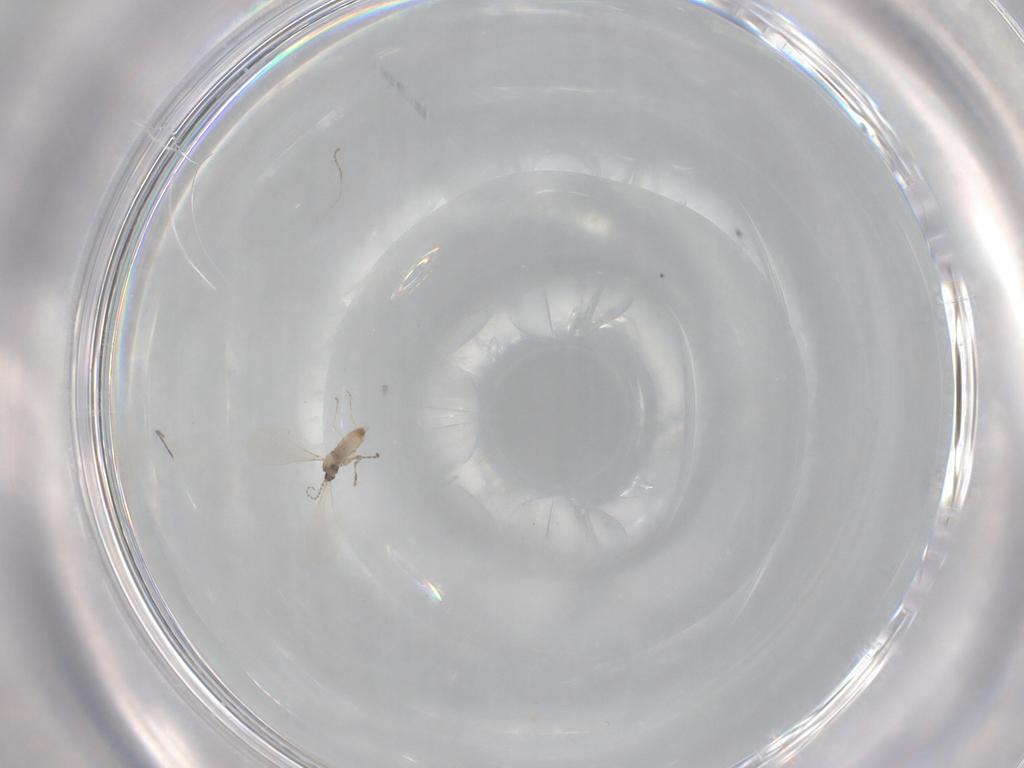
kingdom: Animalia
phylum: Arthropoda
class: Insecta
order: Diptera
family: Cecidomyiidae
